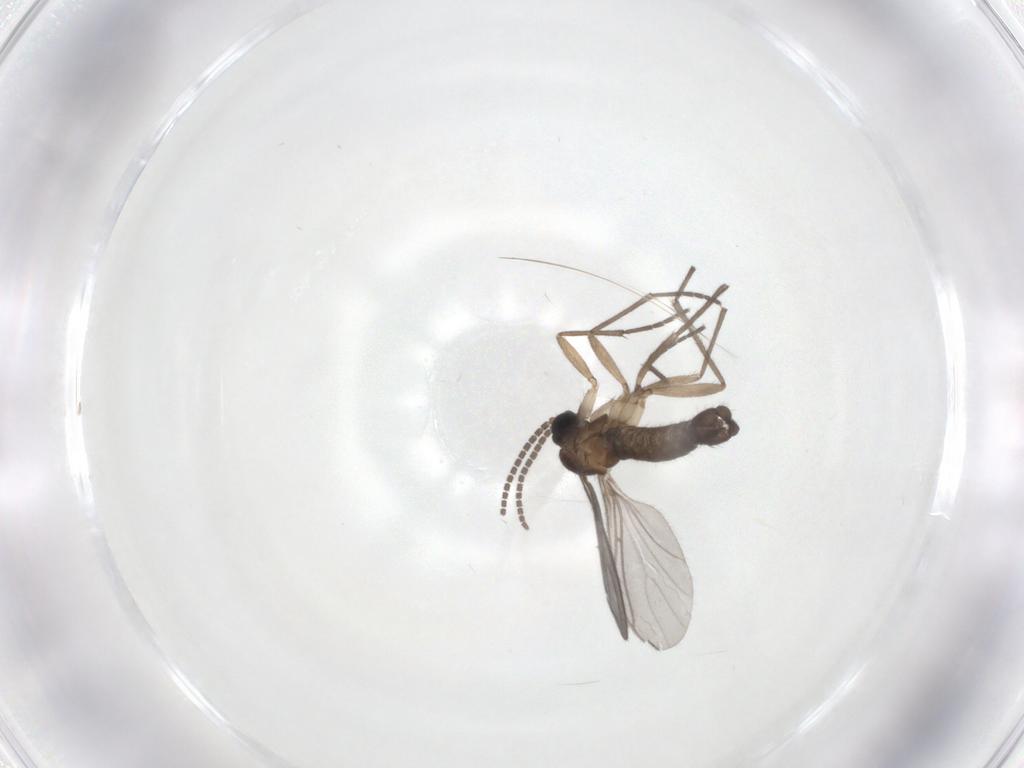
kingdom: Animalia
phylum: Arthropoda
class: Insecta
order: Diptera
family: Sciaridae
